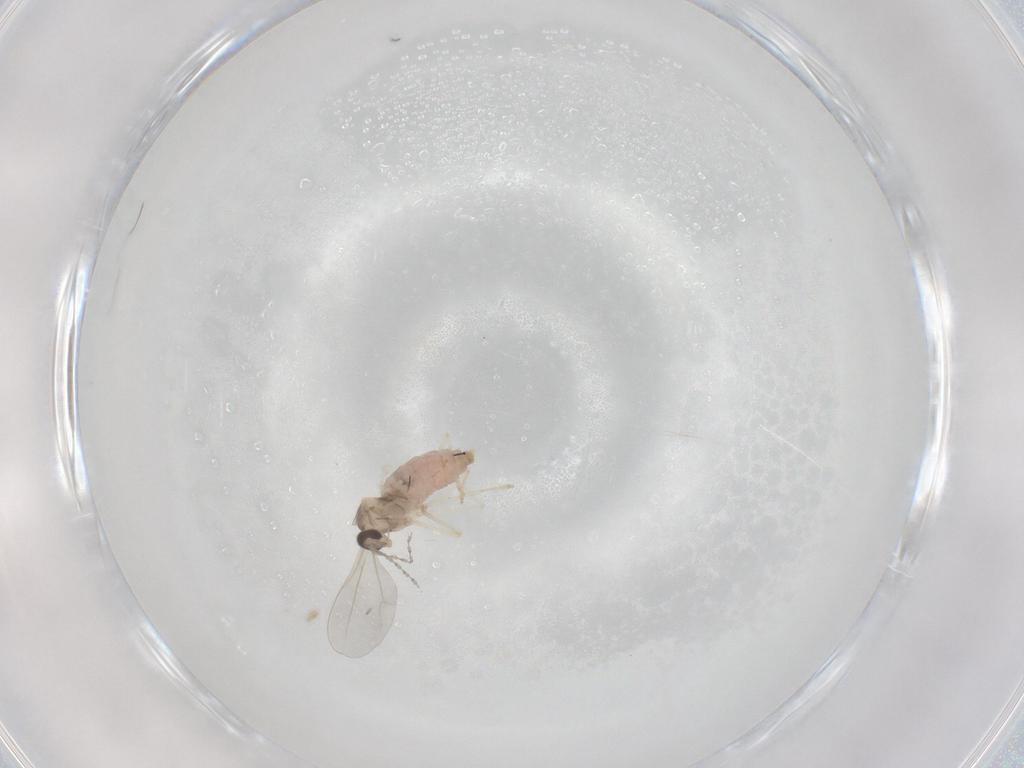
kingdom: Animalia
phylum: Arthropoda
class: Insecta
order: Diptera
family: Cecidomyiidae
